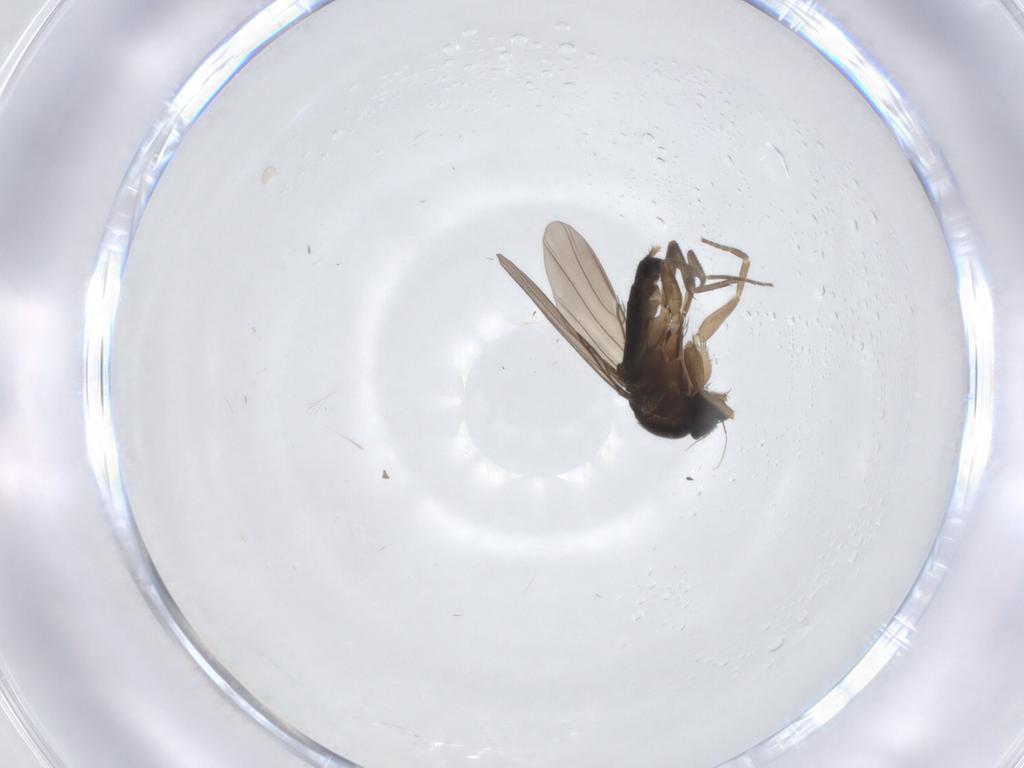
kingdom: Animalia
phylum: Arthropoda
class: Insecta
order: Diptera
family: Phoridae
